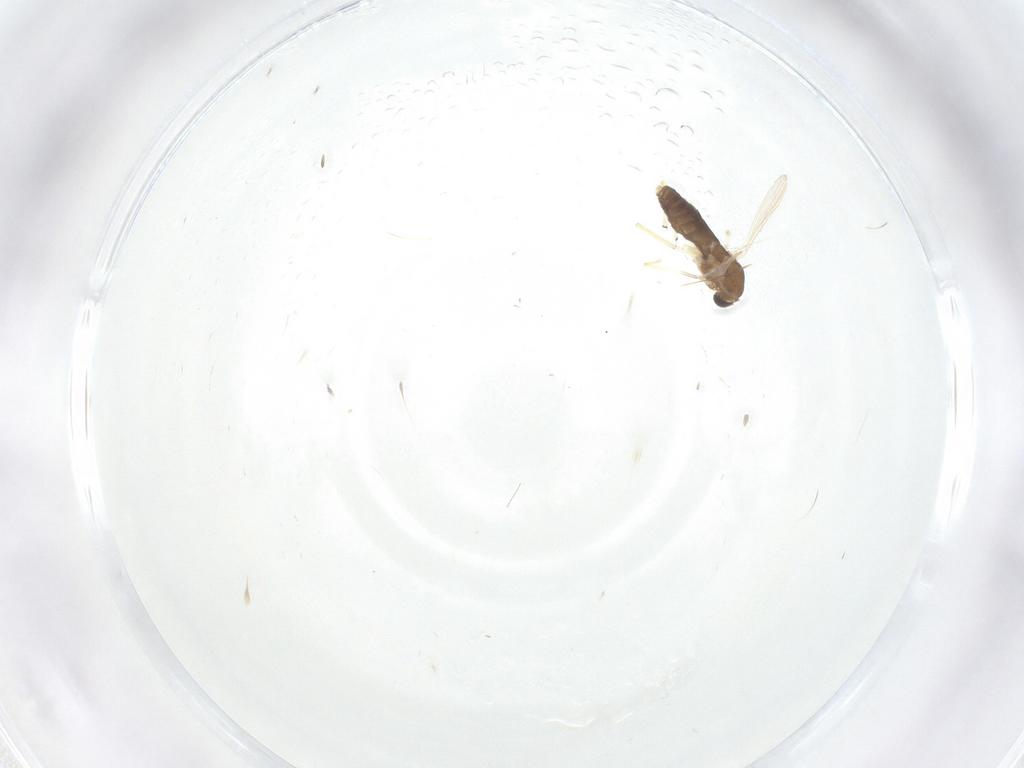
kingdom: Animalia
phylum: Arthropoda
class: Insecta
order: Diptera
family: Chironomidae
